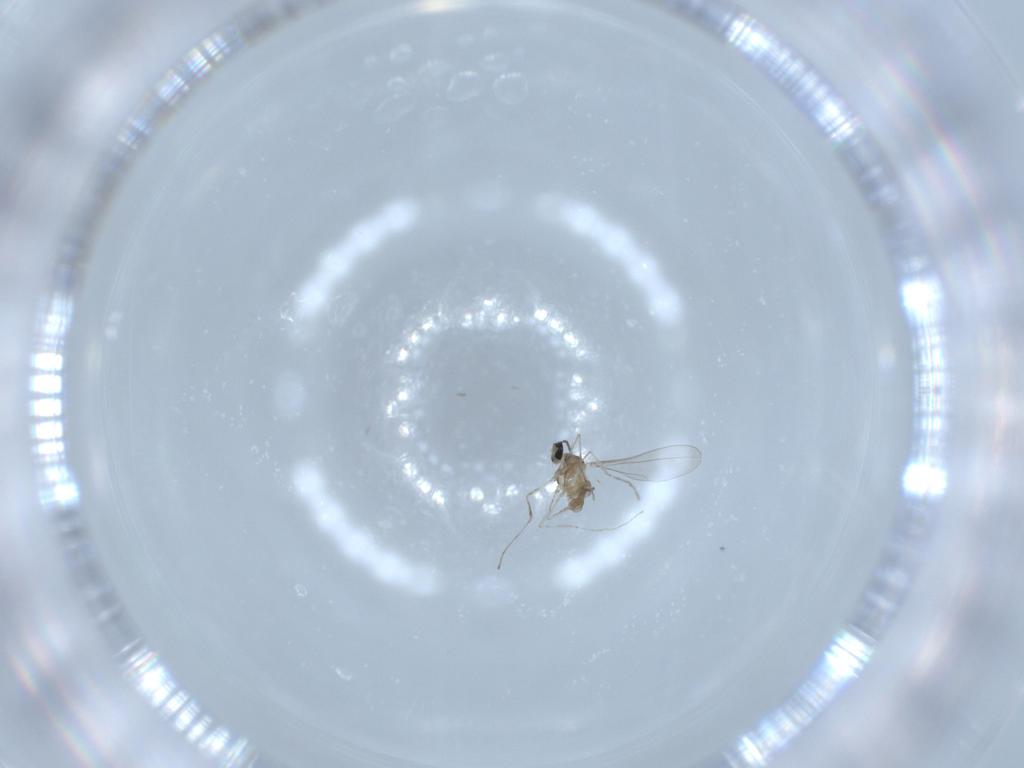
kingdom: Animalia
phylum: Arthropoda
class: Insecta
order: Diptera
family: Cecidomyiidae
